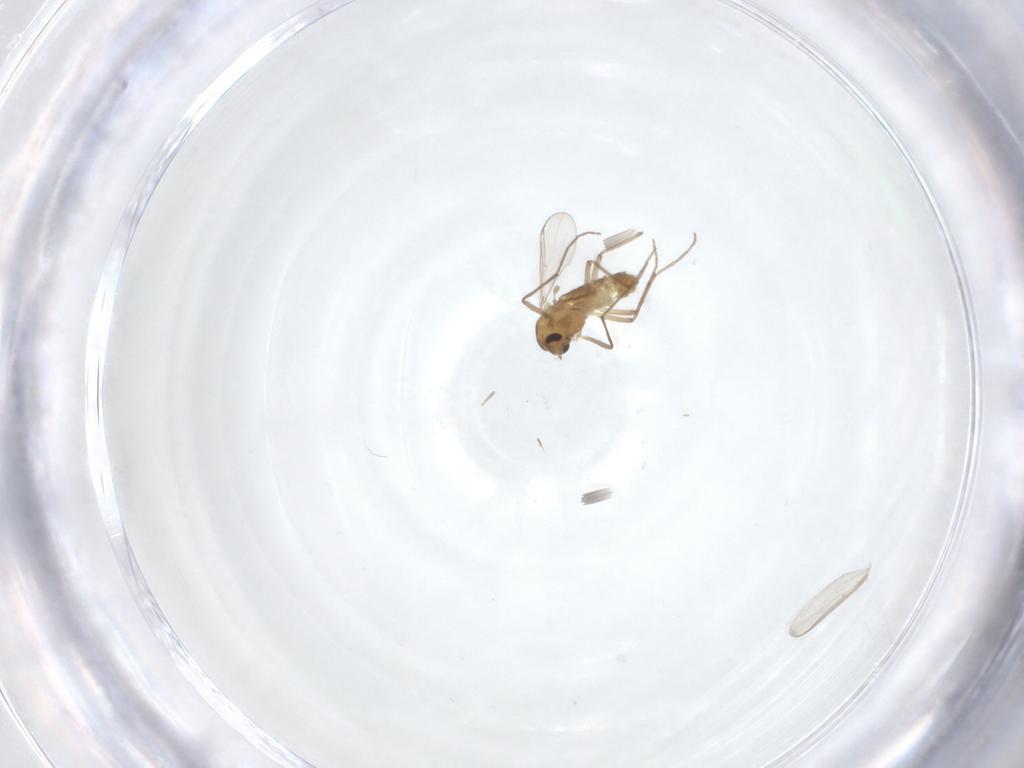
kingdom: Animalia
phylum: Arthropoda
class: Insecta
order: Diptera
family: Chironomidae
